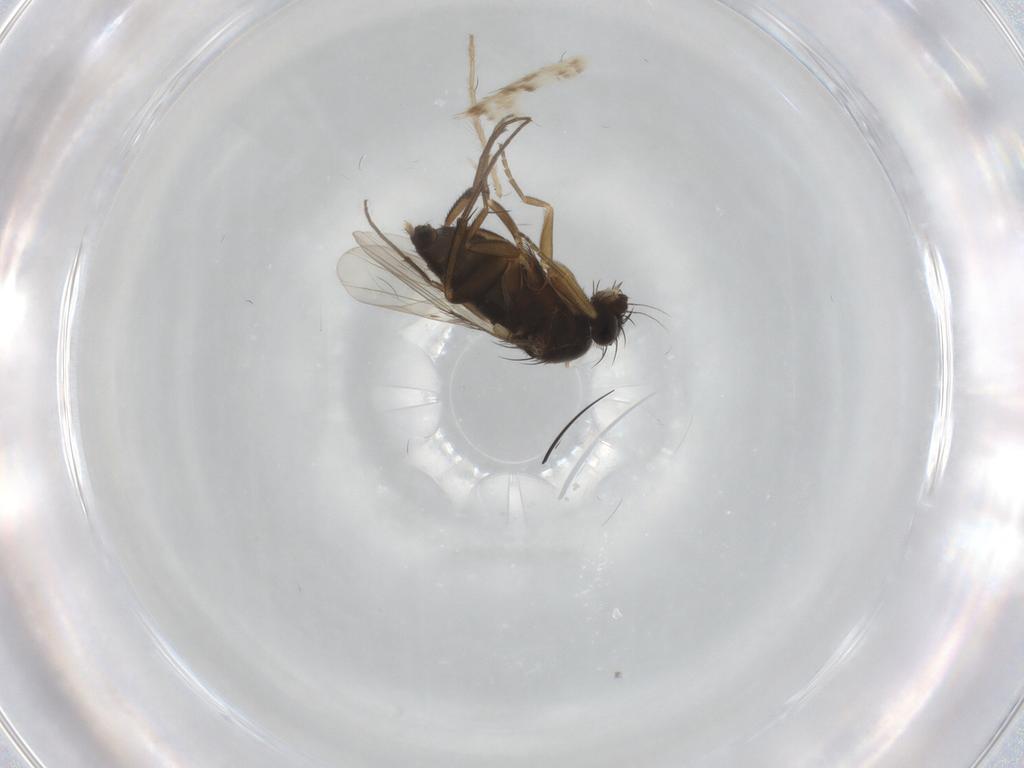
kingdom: Animalia
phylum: Arthropoda
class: Insecta
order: Diptera
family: Phoridae
